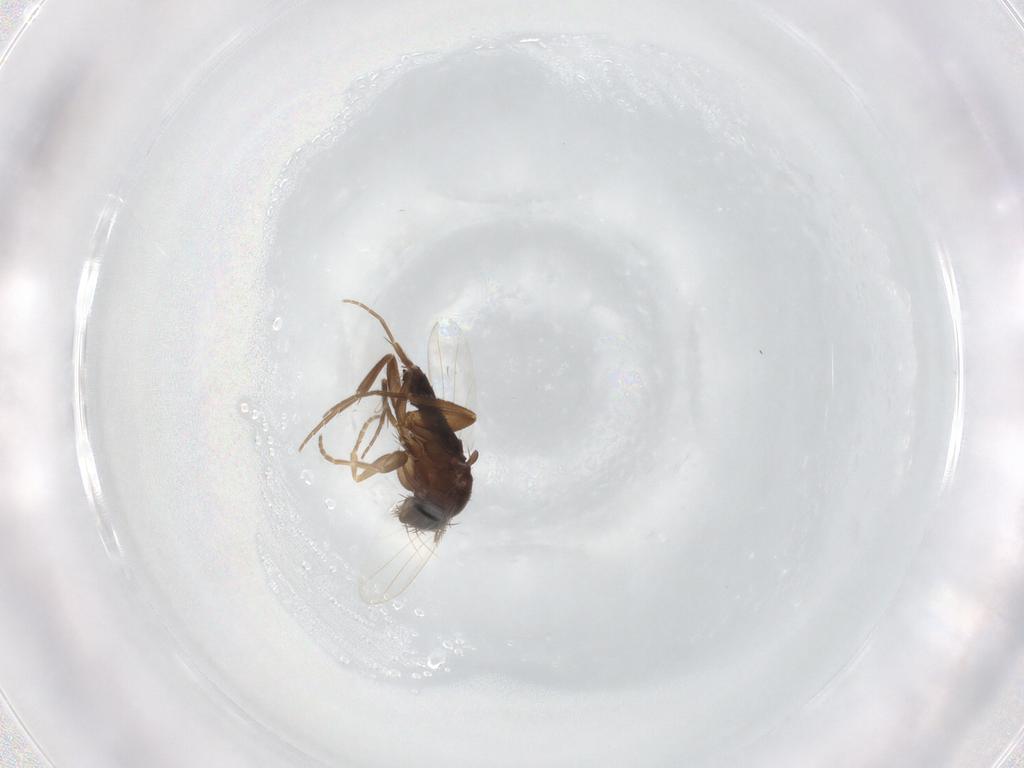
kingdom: Animalia
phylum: Arthropoda
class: Insecta
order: Diptera
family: Phoridae
